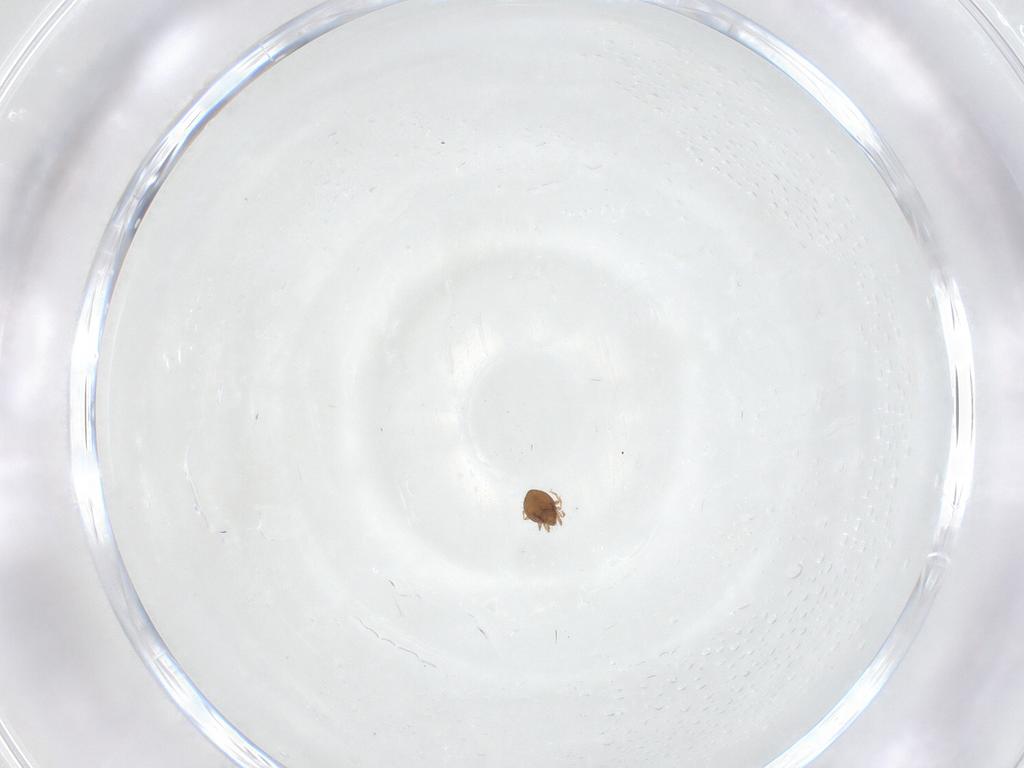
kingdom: Animalia
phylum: Arthropoda
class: Arachnida
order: Sarcoptiformes
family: Oribatulidae
